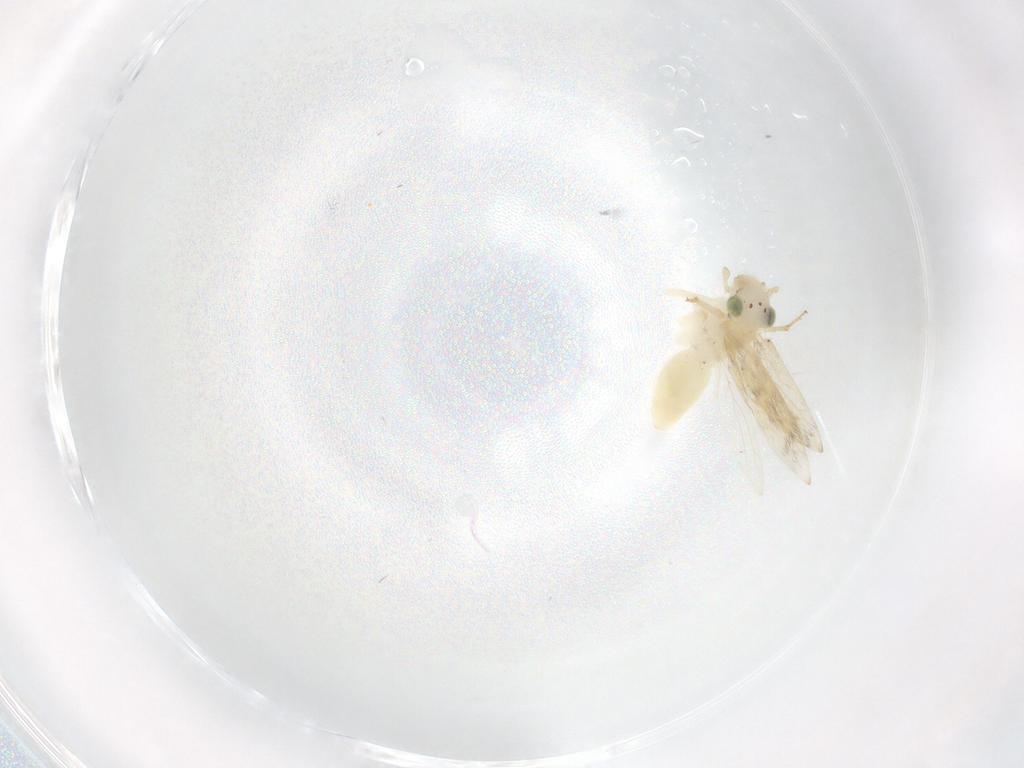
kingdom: Animalia
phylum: Arthropoda
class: Insecta
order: Psocodea
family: Lepidopsocidae
